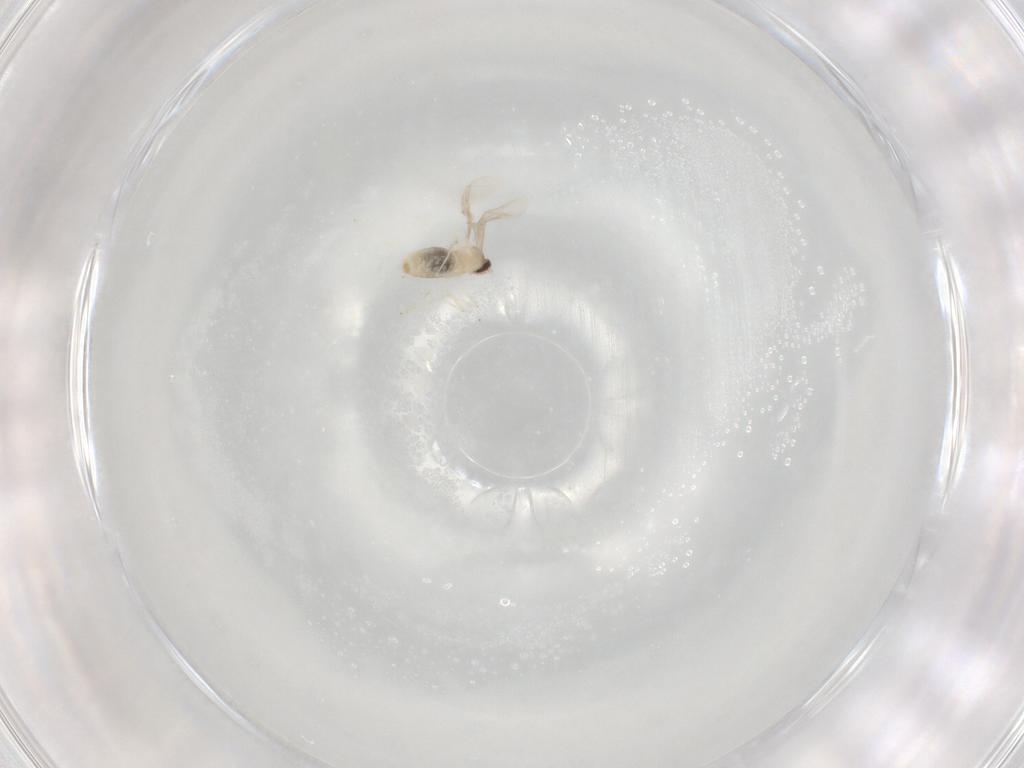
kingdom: Animalia
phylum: Arthropoda
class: Insecta
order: Diptera
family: Cecidomyiidae
